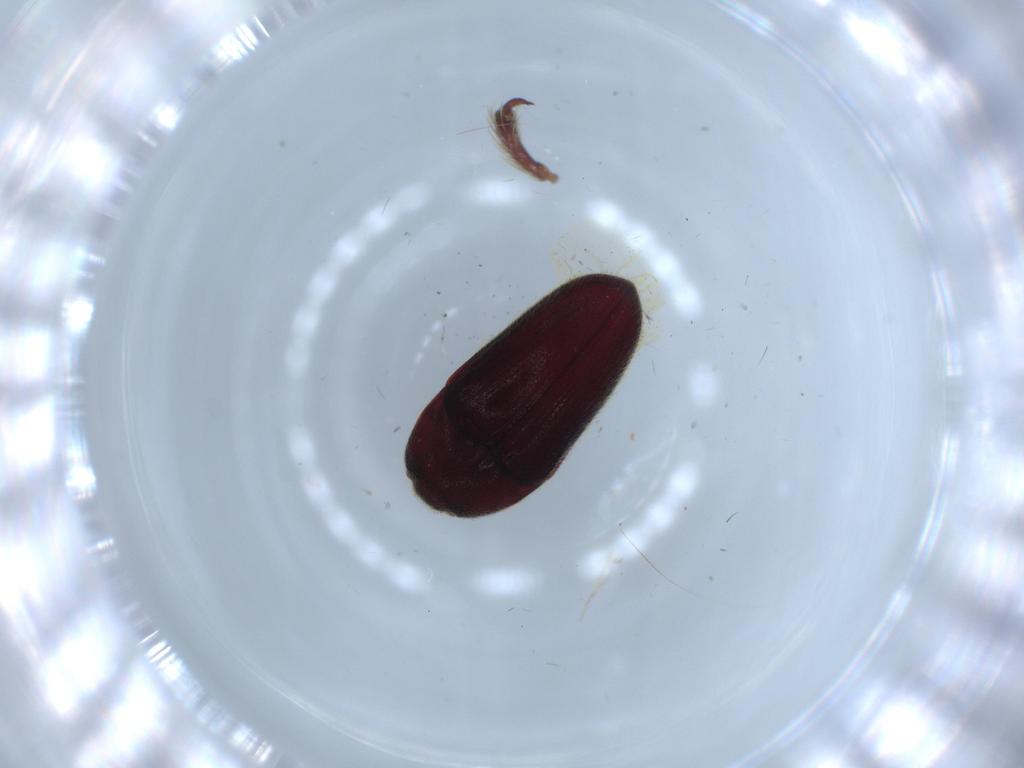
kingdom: Animalia
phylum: Arthropoda
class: Insecta
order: Coleoptera
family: Throscidae
